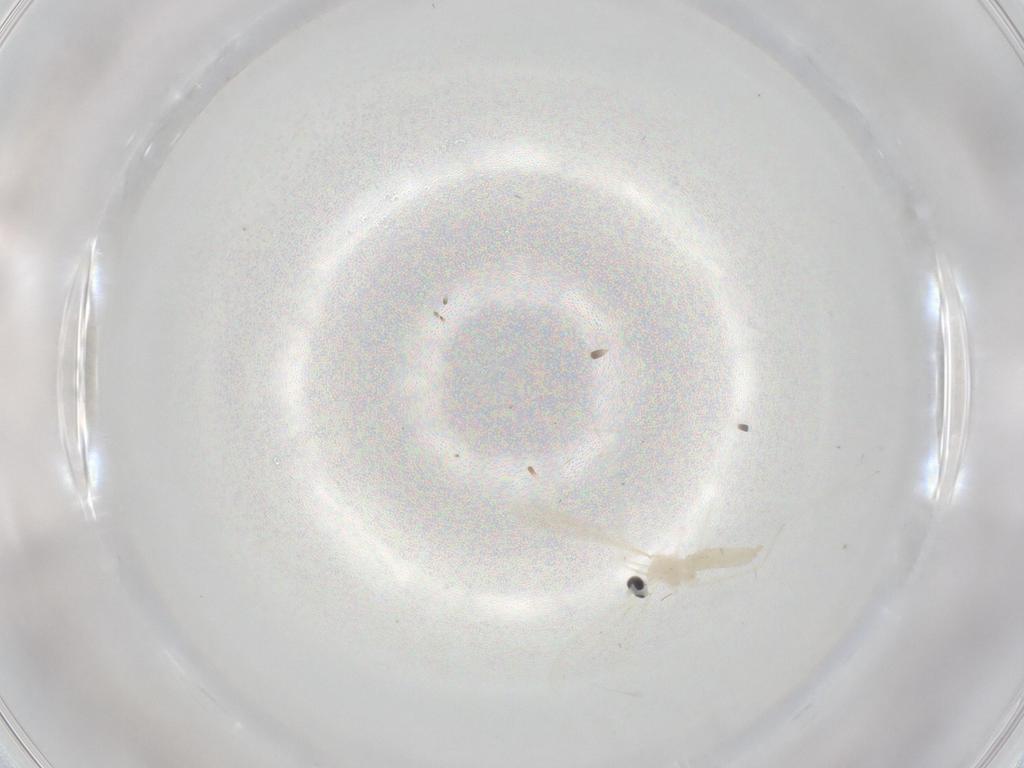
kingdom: Animalia
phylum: Arthropoda
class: Insecta
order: Diptera
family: Cecidomyiidae
